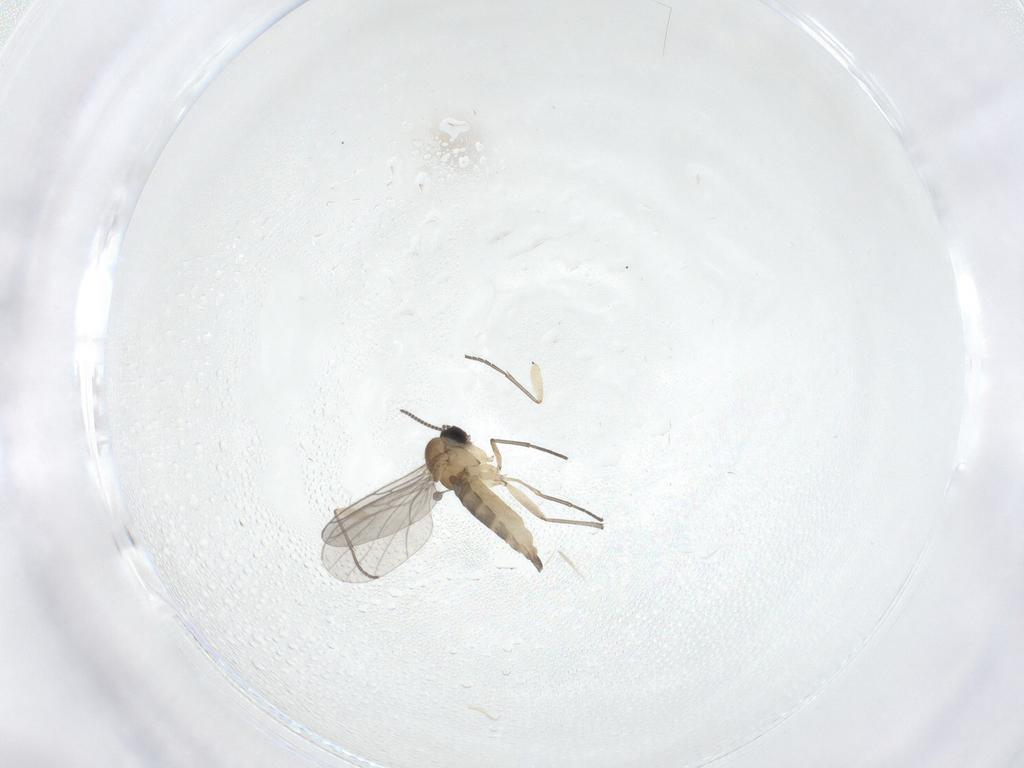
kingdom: Animalia
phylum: Arthropoda
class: Insecta
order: Diptera
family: Sciaridae
